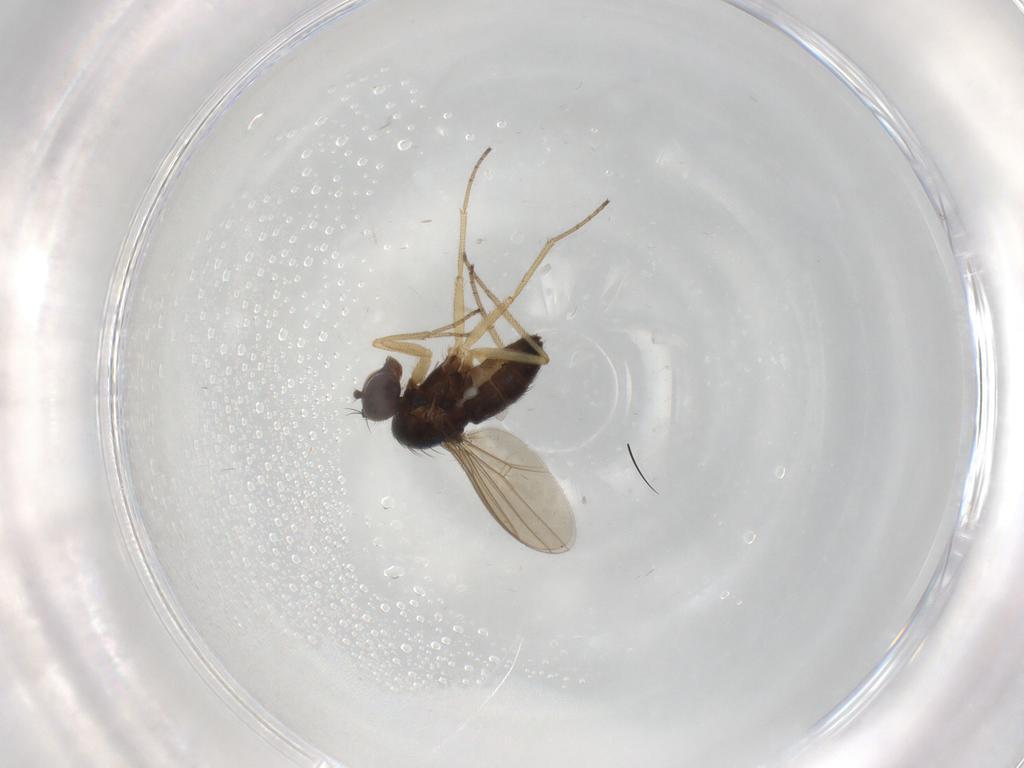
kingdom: Animalia
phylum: Arthropoda
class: Insecta
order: Diptera
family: Dolichopodidae
